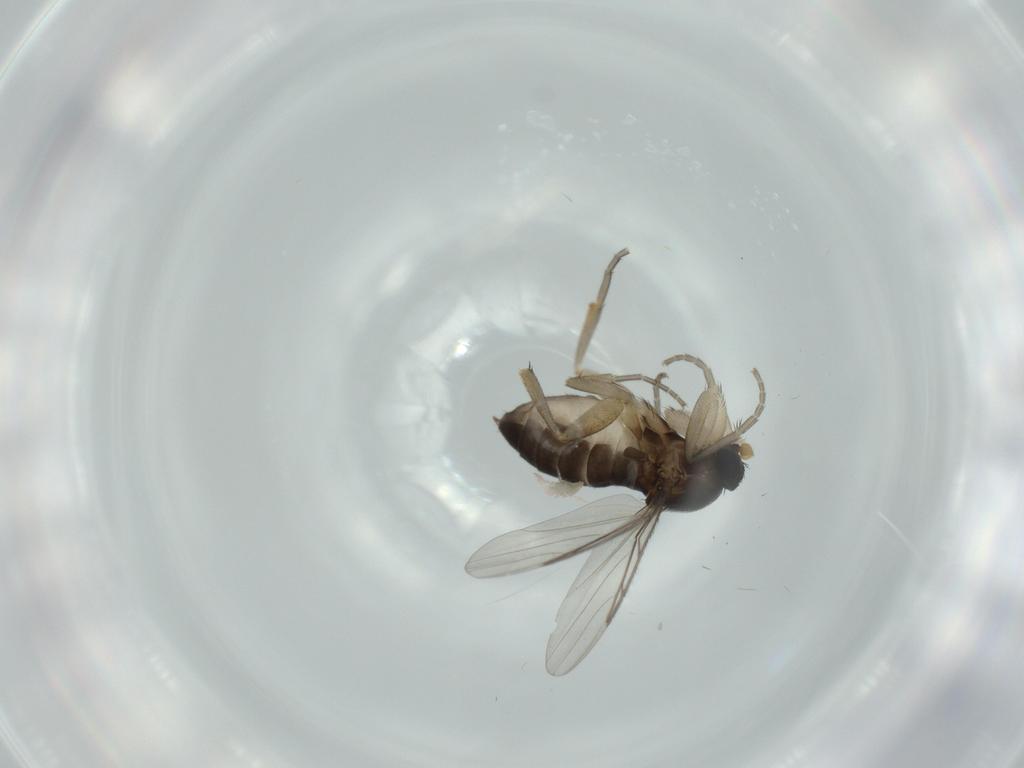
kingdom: Animalia
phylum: Arthropoda
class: Insecta
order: Diptera
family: Phoridae
